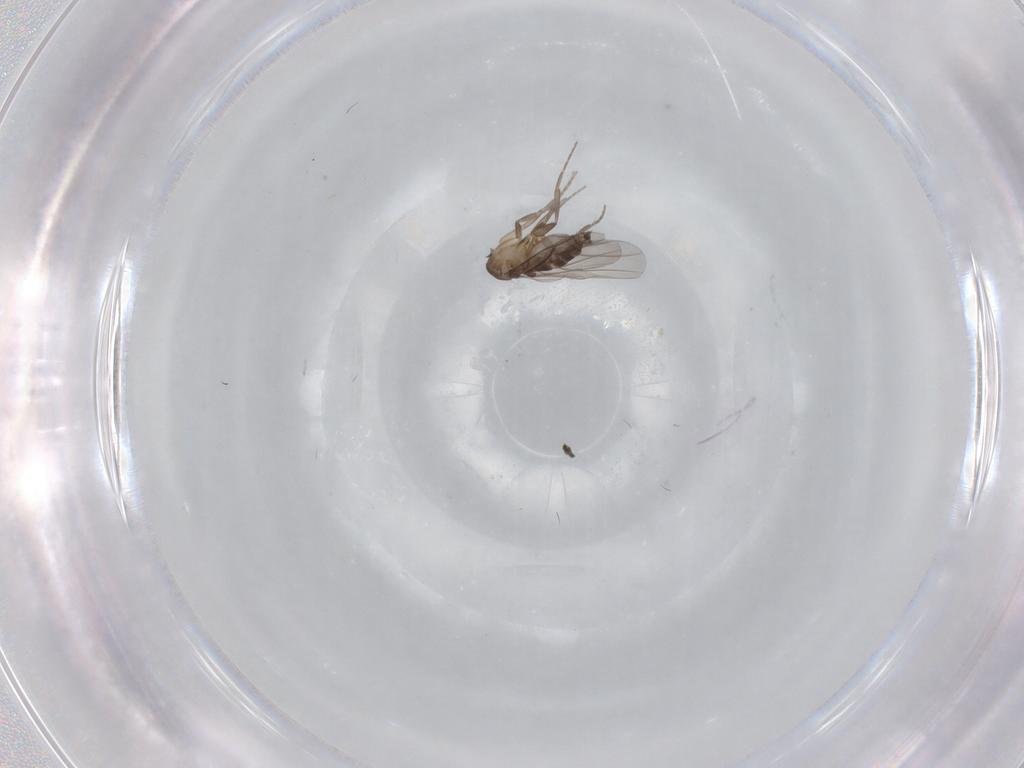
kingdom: Animalia
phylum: Arthropoda
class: Insecta
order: Diptera
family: Phoridae
